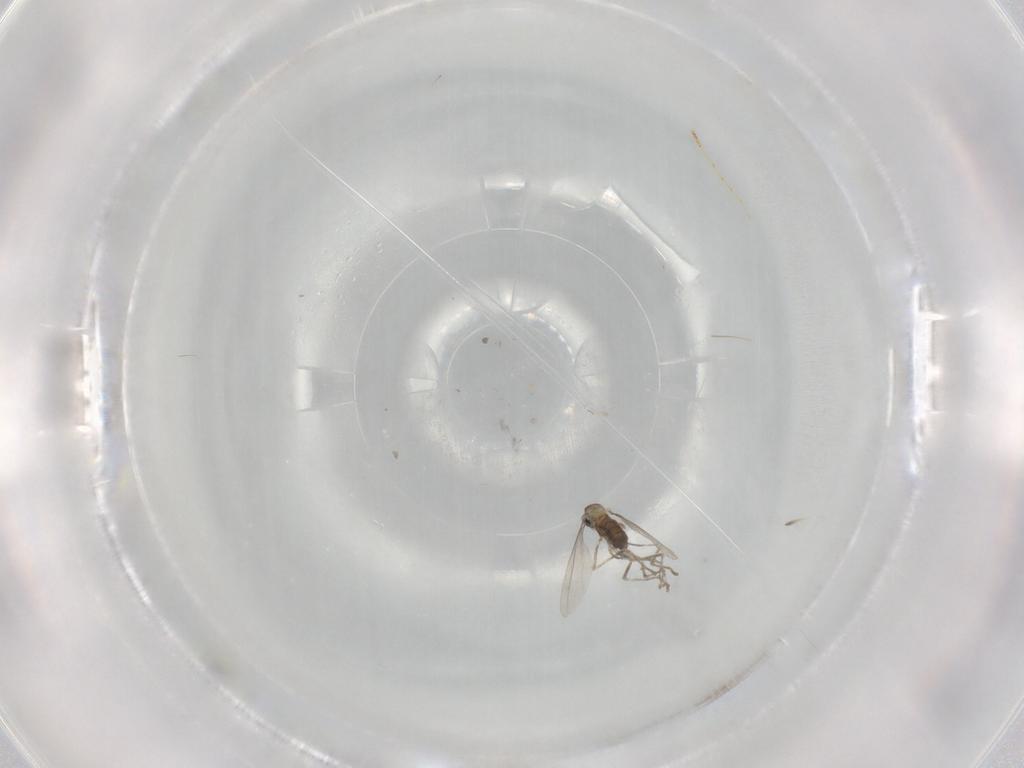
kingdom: Animalia
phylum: Arthropoda
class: Insecta
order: Diptera
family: Cecidomyiidae
